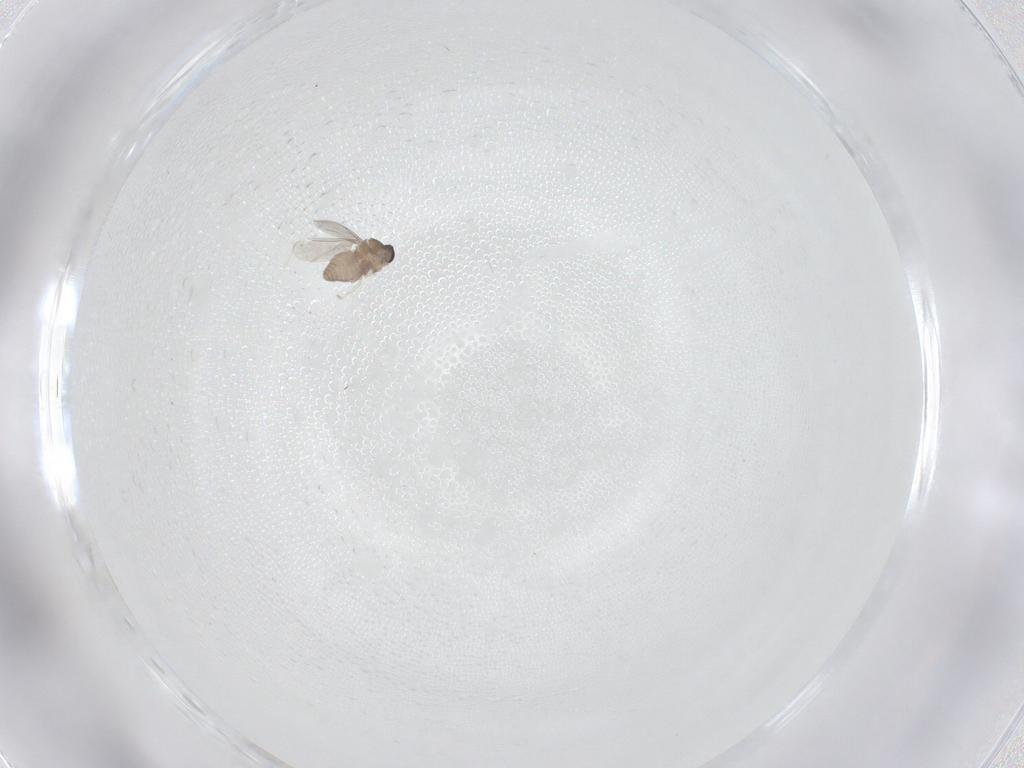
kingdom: Animalia
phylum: Arthropoda
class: Insecta
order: Diptera
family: Cecidomyiidae
